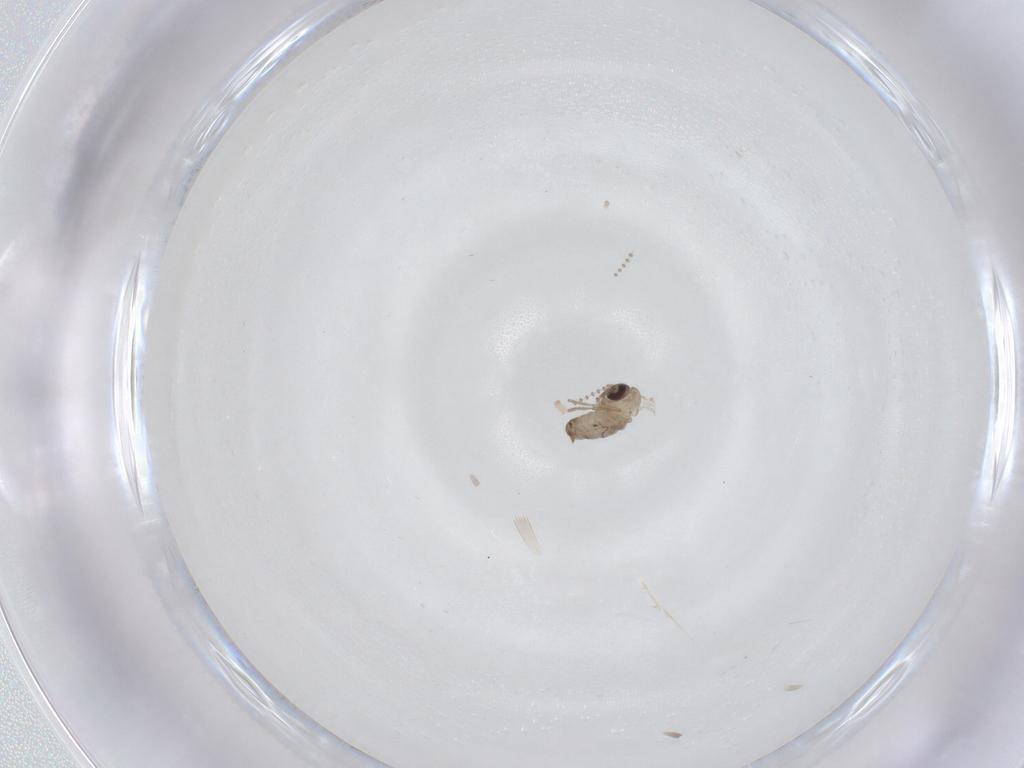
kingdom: Animalia
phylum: Arthropoda
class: Insecta
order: Diptera
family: Psychodidae
